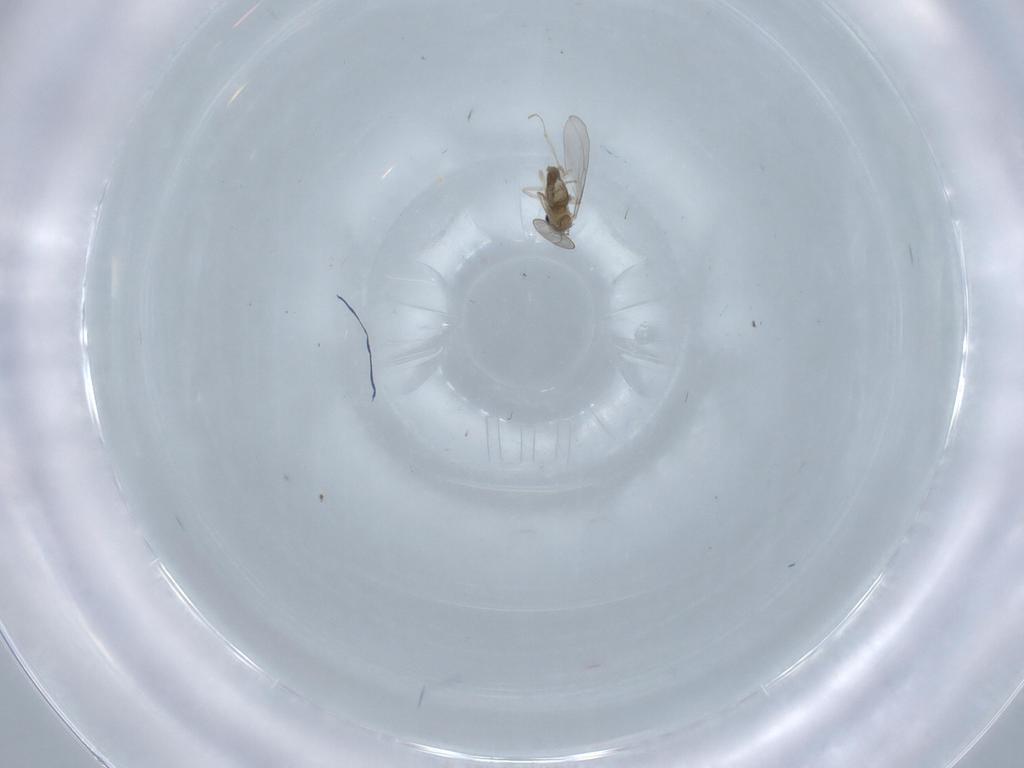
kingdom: Animalia
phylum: Arthropoda
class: Insecta
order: Diptera
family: Cecidomyiidae
